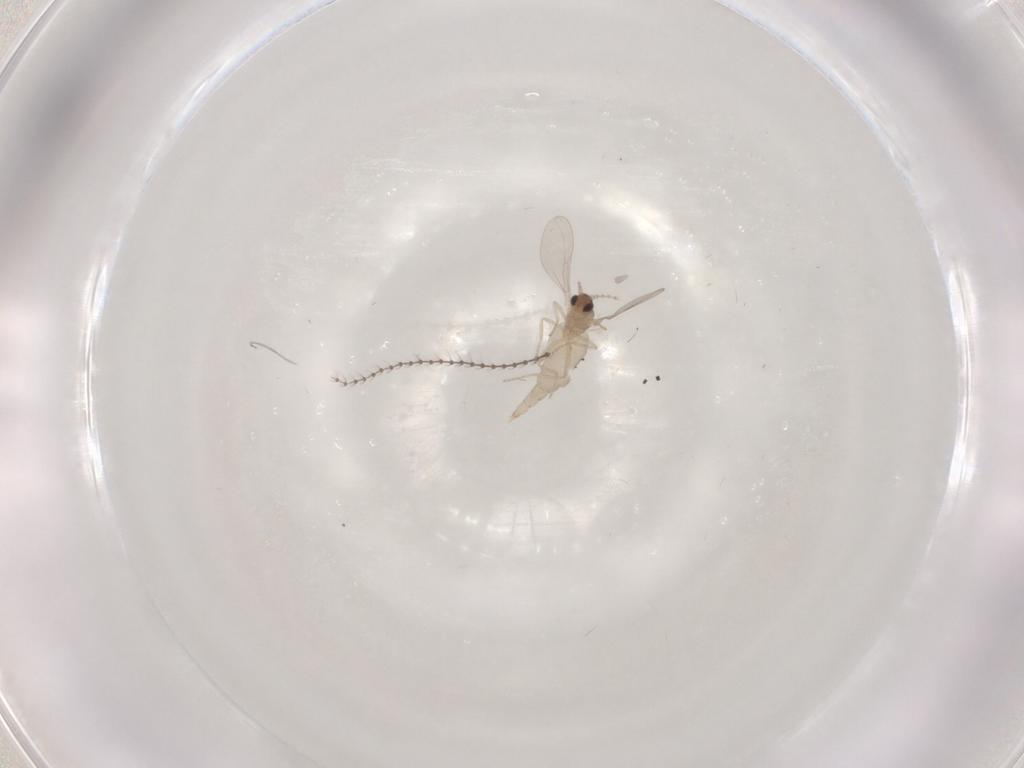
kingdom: Animalia
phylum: Arthropoda
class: Insecta
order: Diptera
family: Cecidomyiidae
